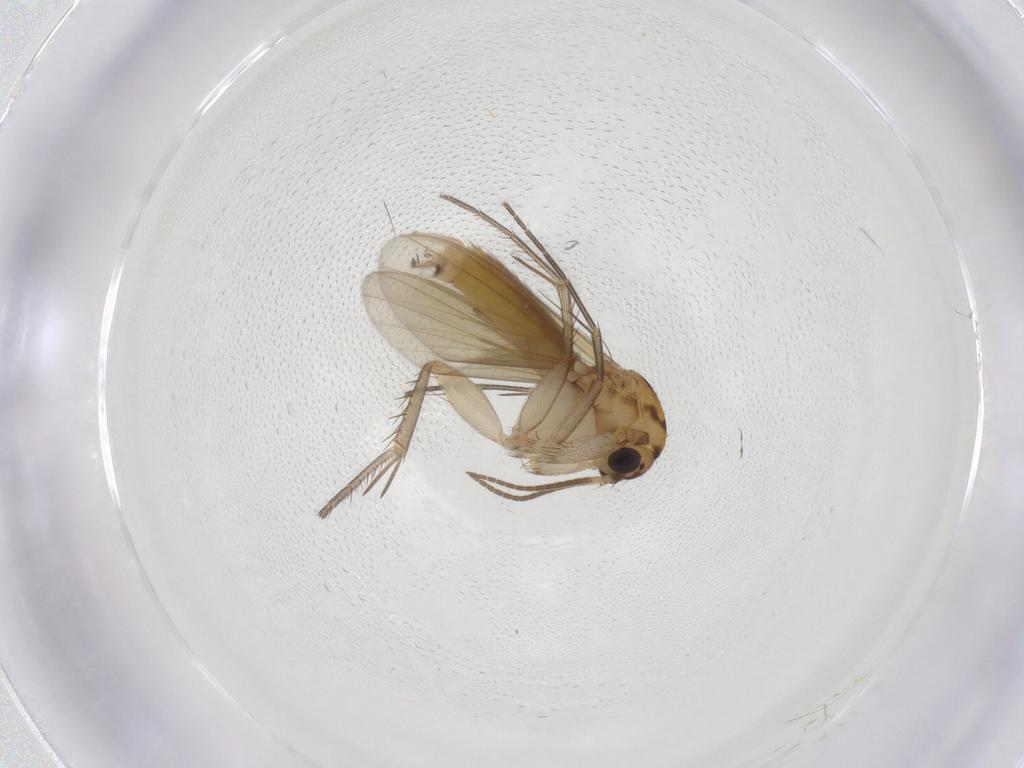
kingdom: Animalia
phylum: Arthropoda
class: Insecta
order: Diptera
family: Mycetophilidae
